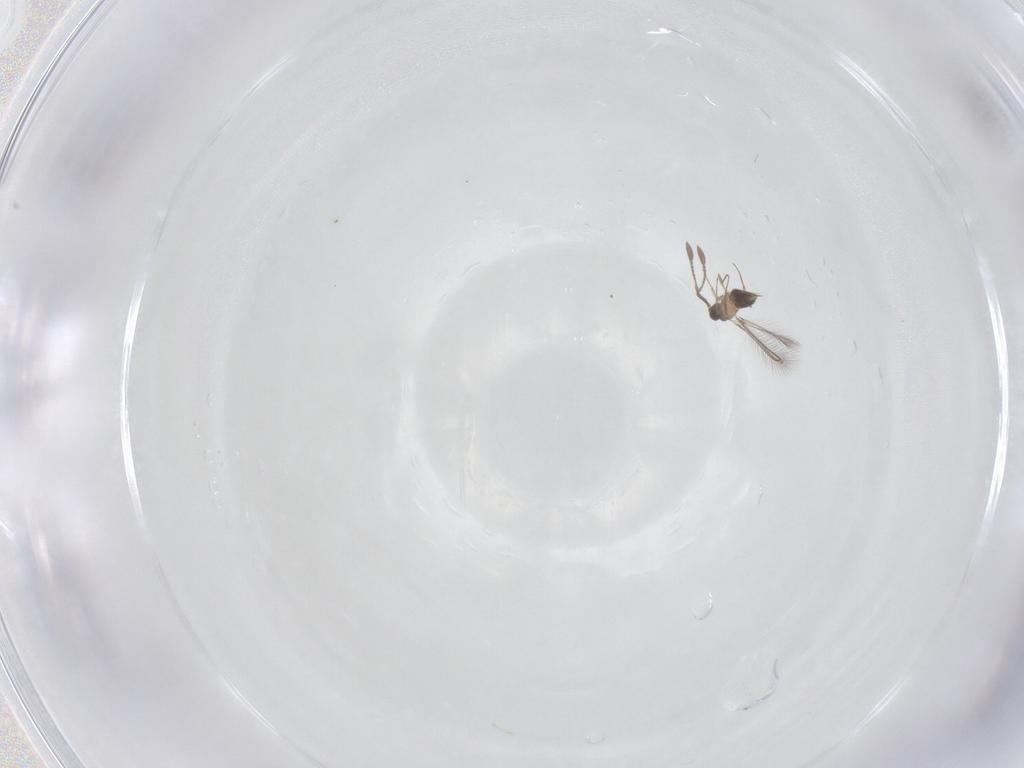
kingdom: Animalia
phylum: Arthropoda
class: Insecta
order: Hymenoptera
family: Mymaridae
